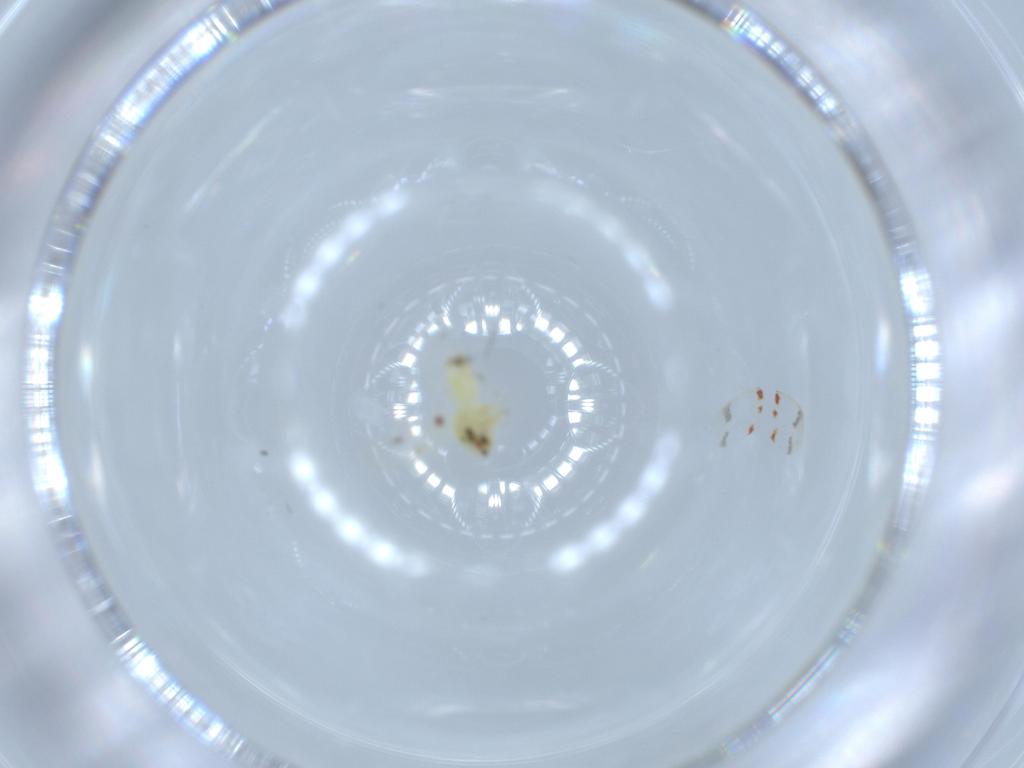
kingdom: Animalia
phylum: Arthropoda
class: Insecta
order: Hemiptera
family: Aleyrodidae
